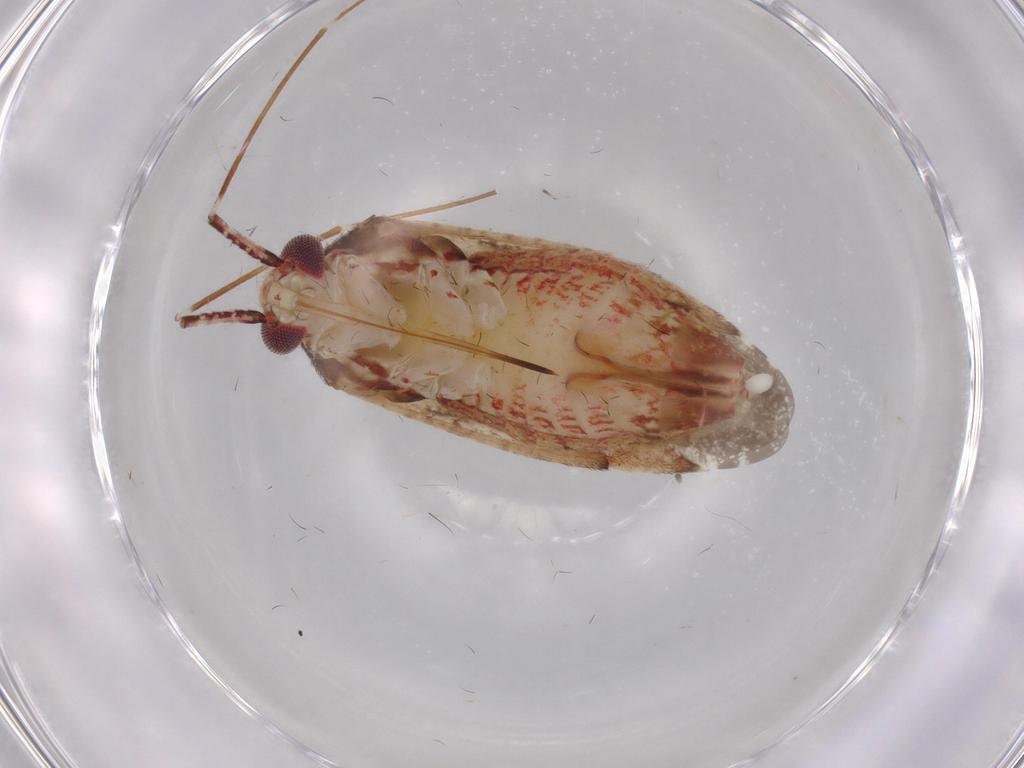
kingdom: Animalia
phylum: Arthropoda
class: Insecta
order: Hemiptera
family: Miridae
